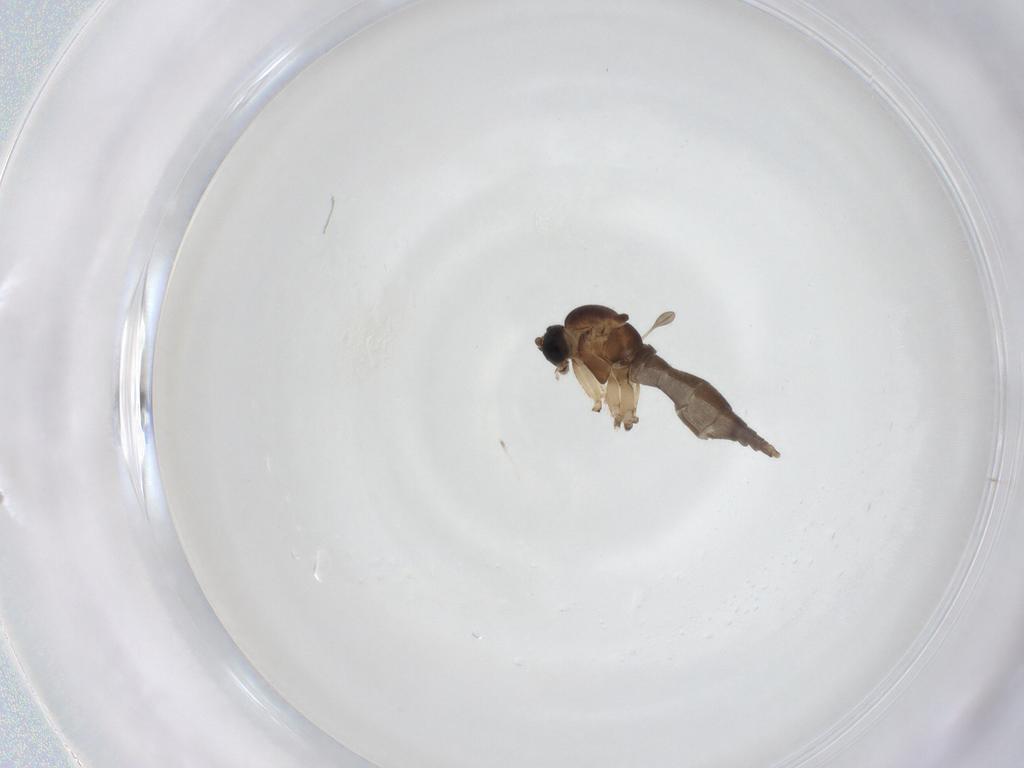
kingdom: Animalia
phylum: Arthropoda
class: Insecta
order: Diptera
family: Sciaridae
